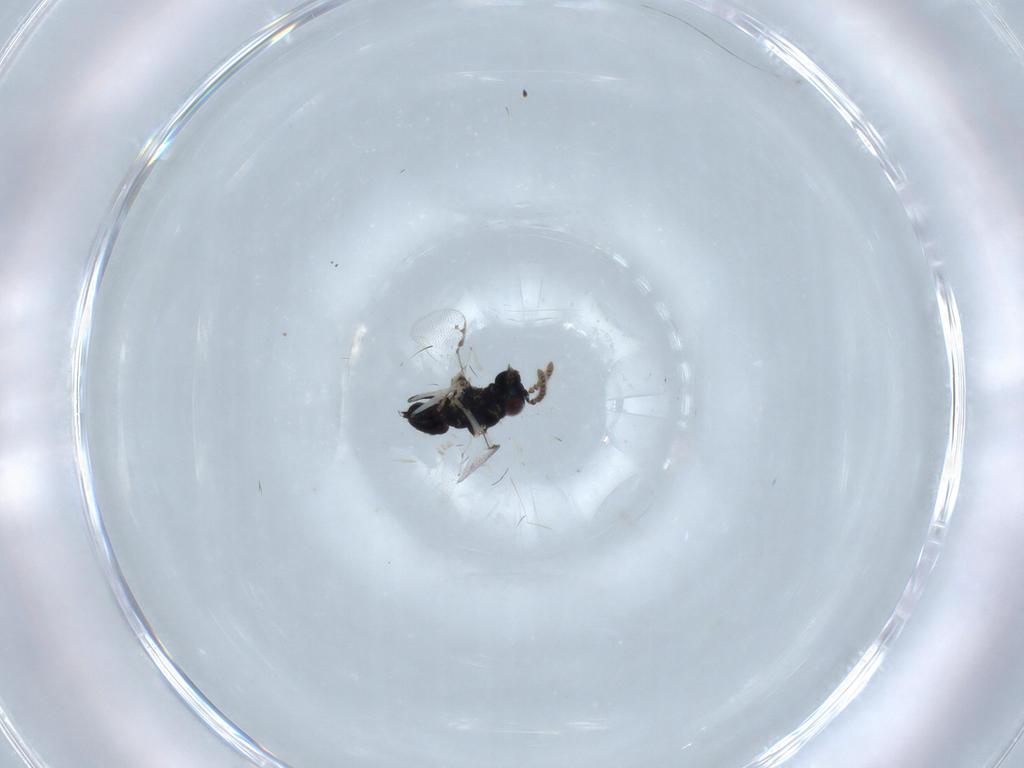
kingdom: Animalia
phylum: Arthropoda
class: Insecta
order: Hymenoptera
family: Pirenidae
